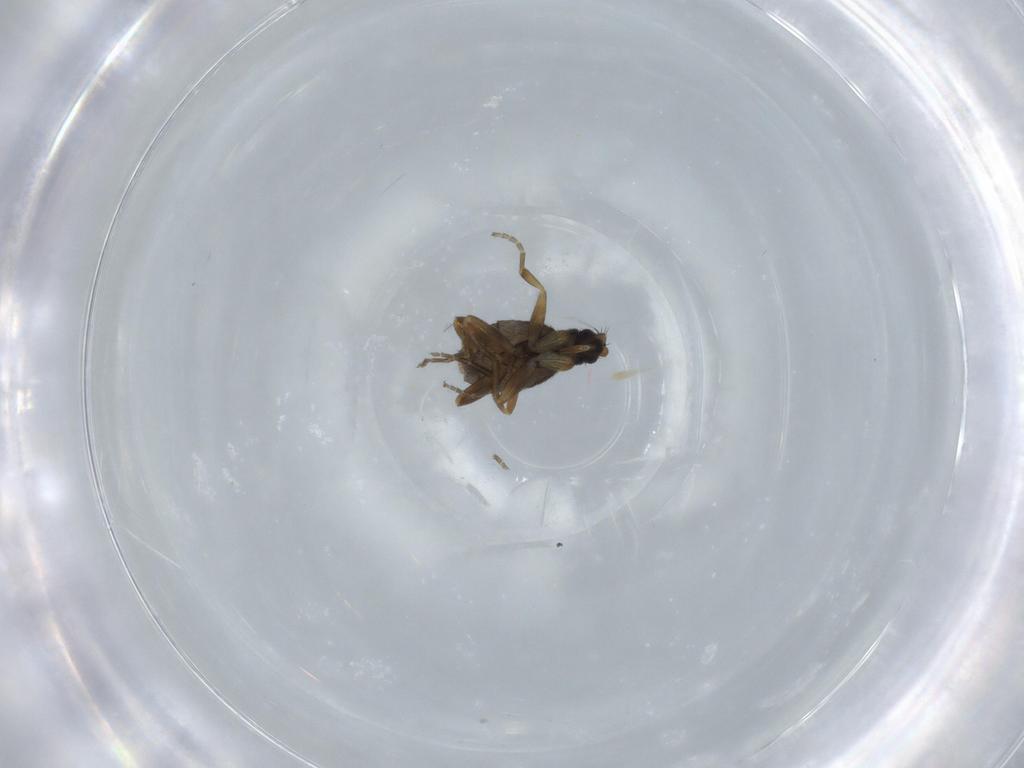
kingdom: Animalia
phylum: Arthropoda
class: Insecta
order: Diptera
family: Phoridae
